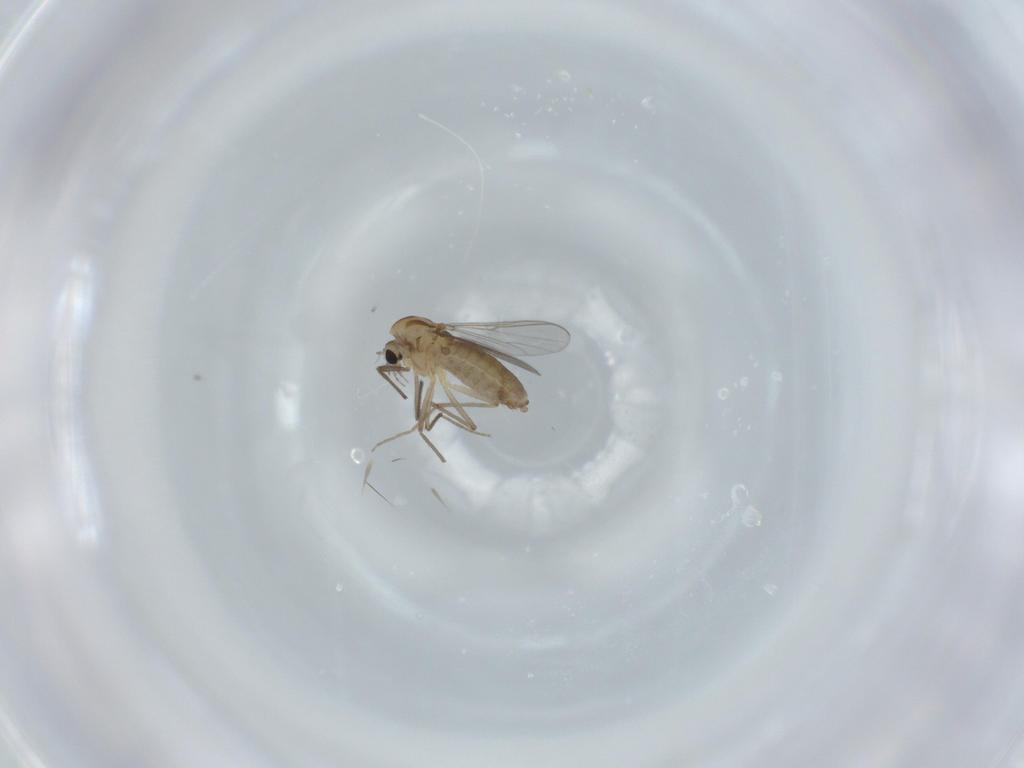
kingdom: Animalia
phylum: Arthropoda
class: Insecta
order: Diptera
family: Chironomidae
